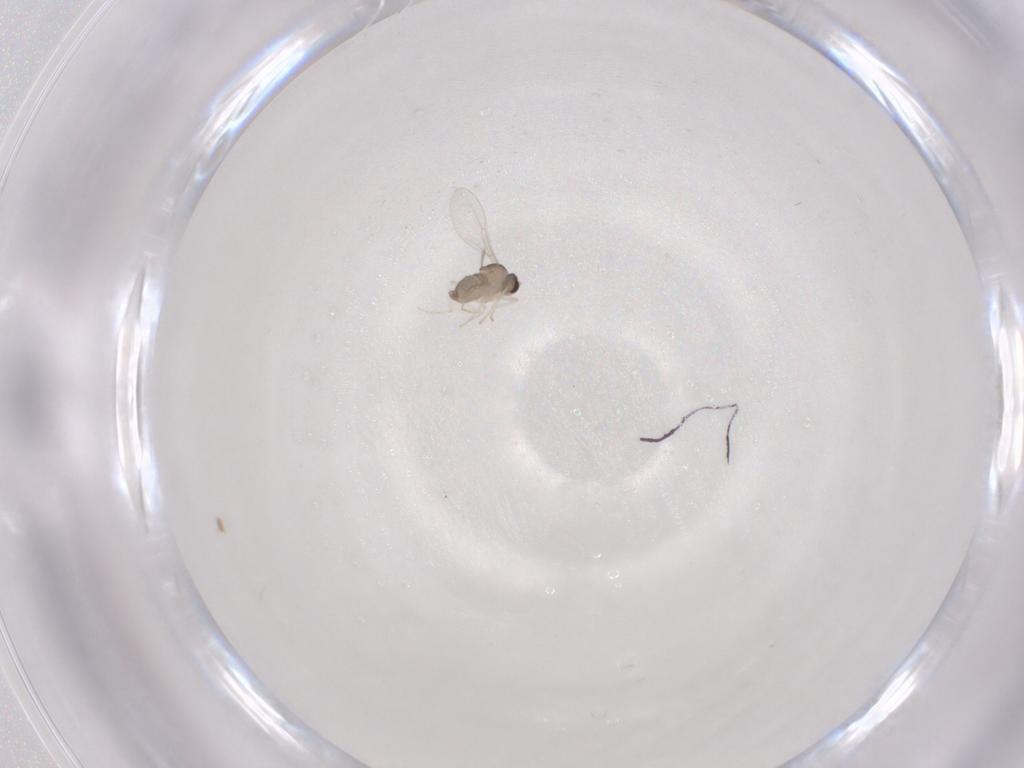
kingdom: Animalia
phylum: Arthropoda
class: Insecta
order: Diptera
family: Cecidomyiidae
